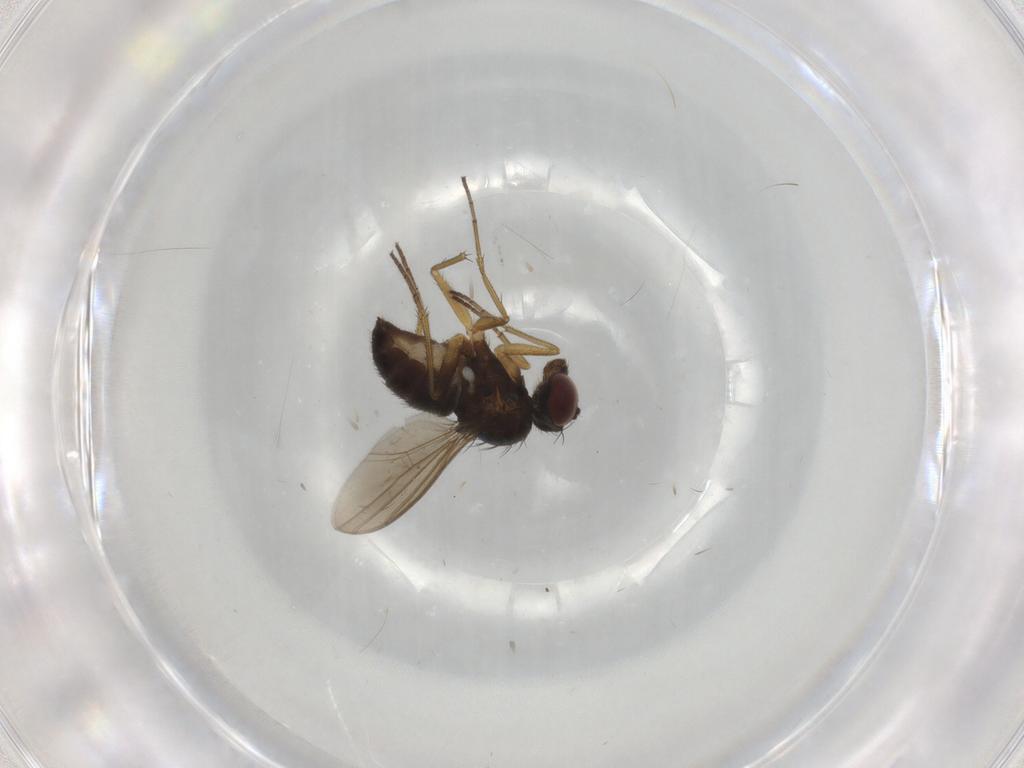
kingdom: Animalia
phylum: Arthropoda
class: Insecta
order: Diptera
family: Dolichopodidae
